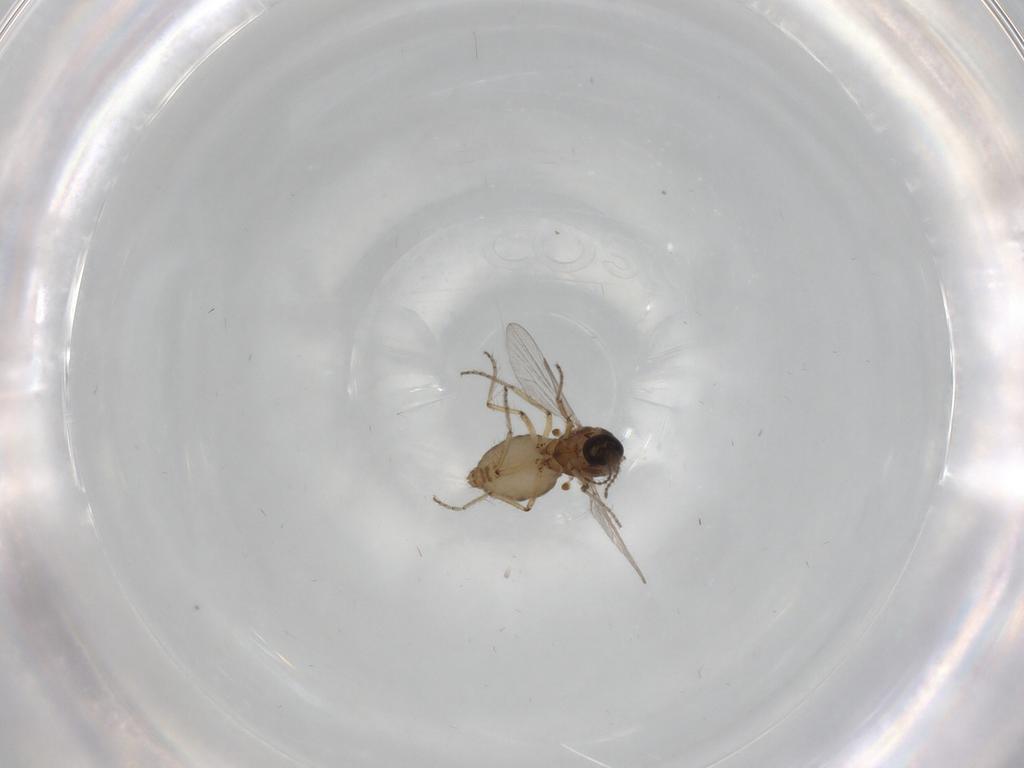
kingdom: Animalia
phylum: Arthropoda
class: Insecta
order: Diptera
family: Ceratopogonidae
